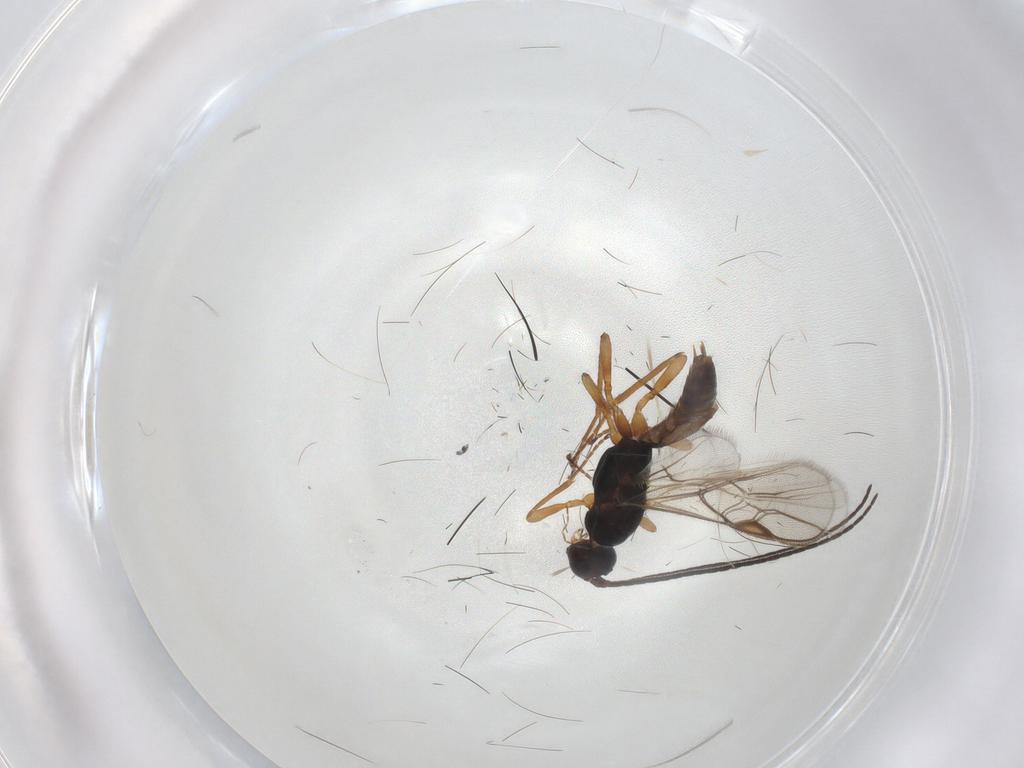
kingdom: Animalia
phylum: Arthropoda
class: Insecta
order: Hymenoptera
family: Braconidae
